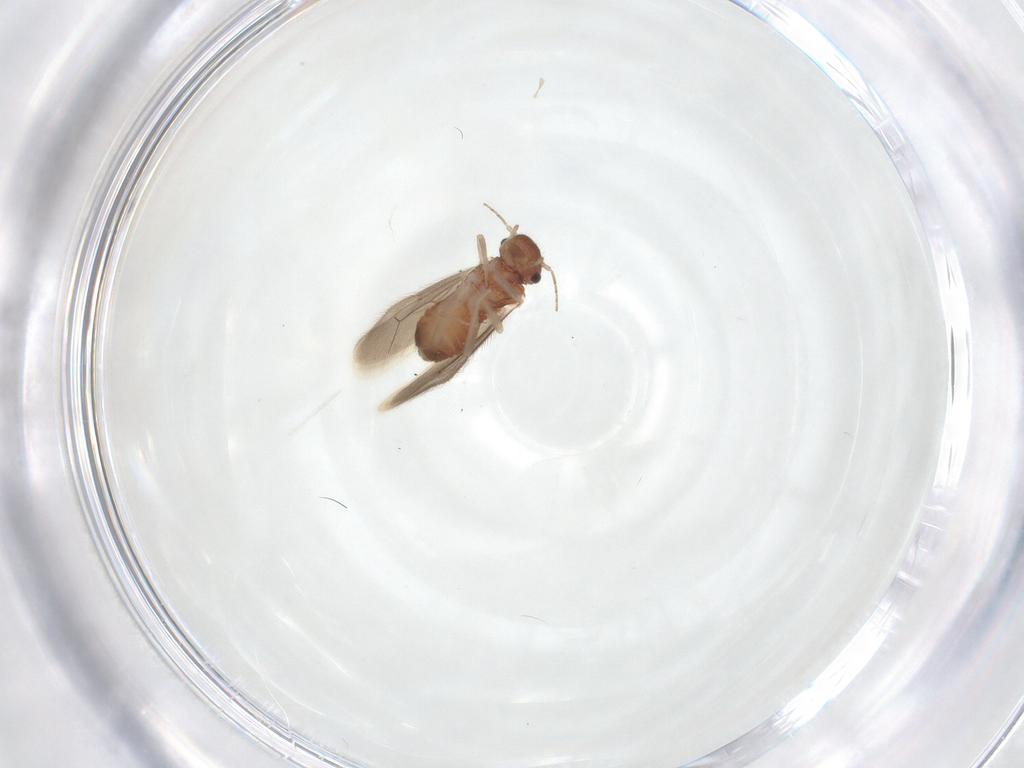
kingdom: Animalia
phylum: Arthropoda
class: Insecta
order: Psocodea
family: Archipsocidae
